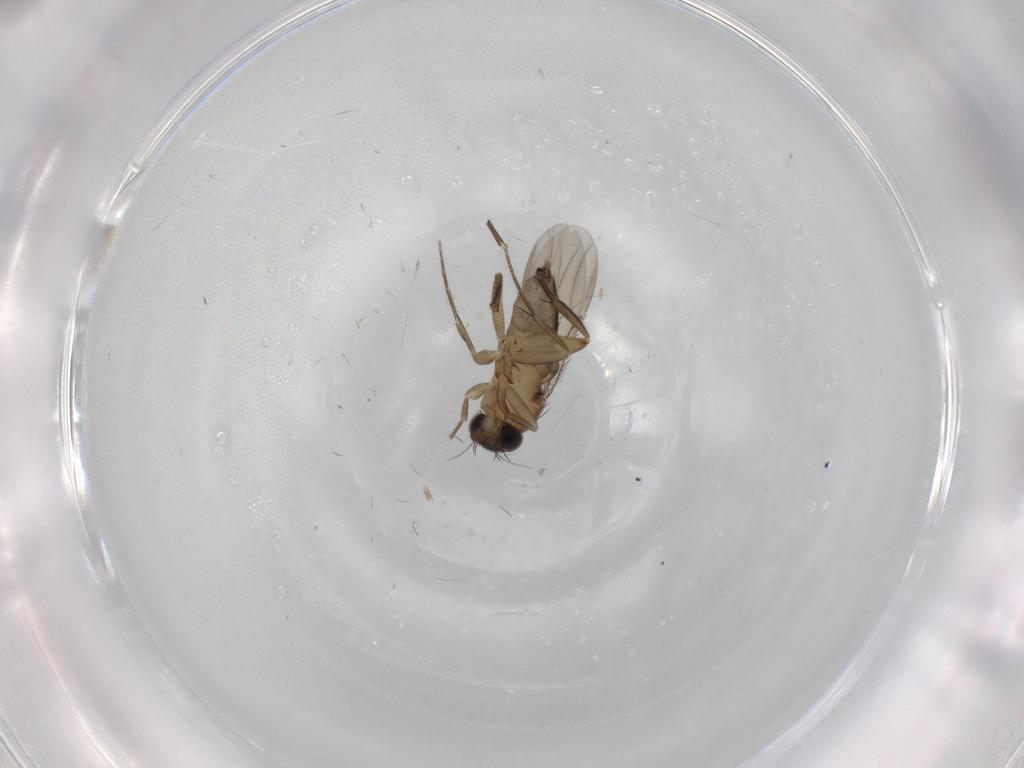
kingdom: Animalia
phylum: Arthropoda
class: Insecta
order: Diptera
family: Phoridae
